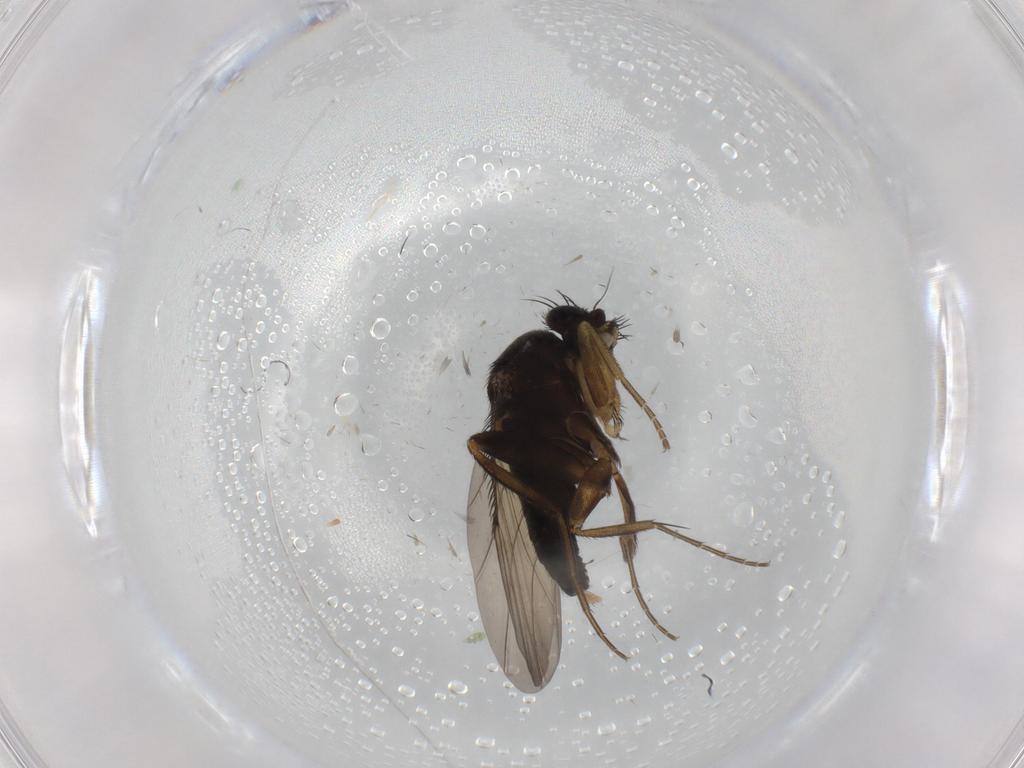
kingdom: Animalia
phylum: Arthropoda
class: Insecta
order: Diptera
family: Phoridae
